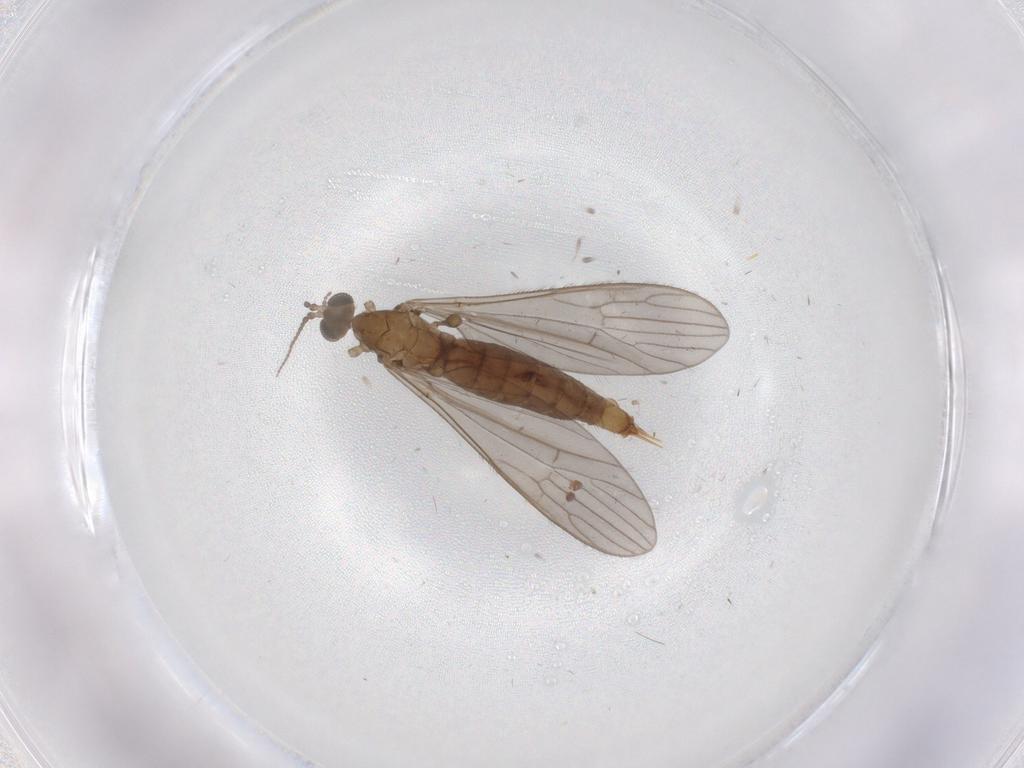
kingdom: Animalia
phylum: Arthropoda
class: Insecta
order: Diptera
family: Limoniidae
